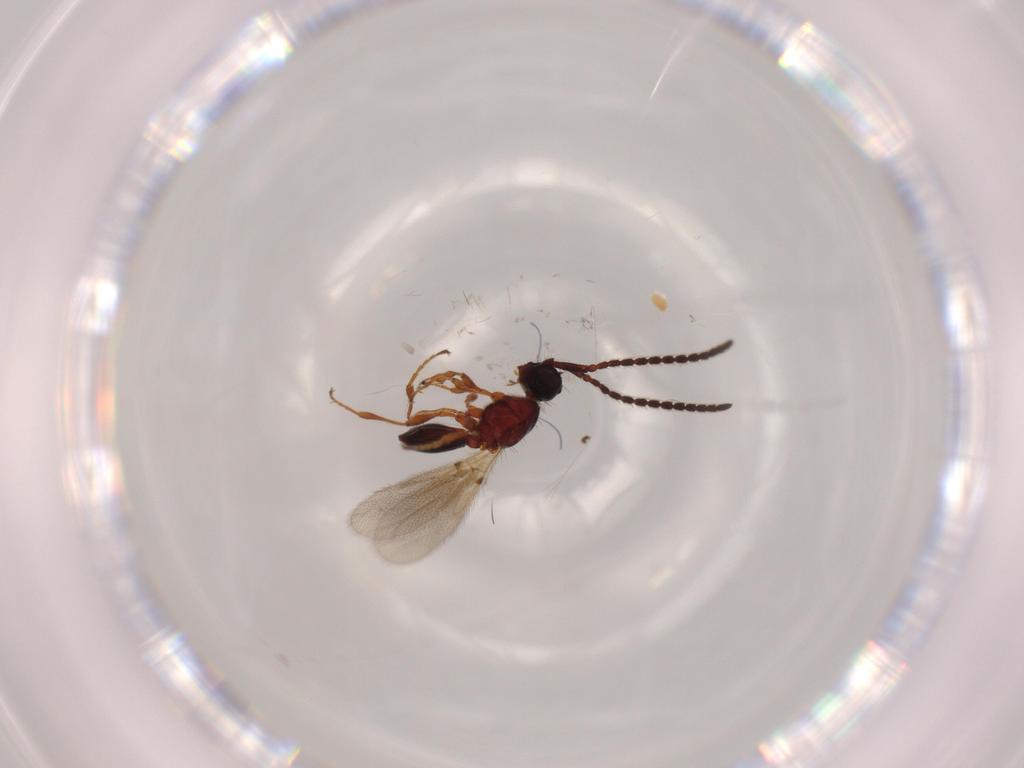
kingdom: Animalia
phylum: Arthropoda
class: Insecta
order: Hymenoptera
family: Diapriidae
